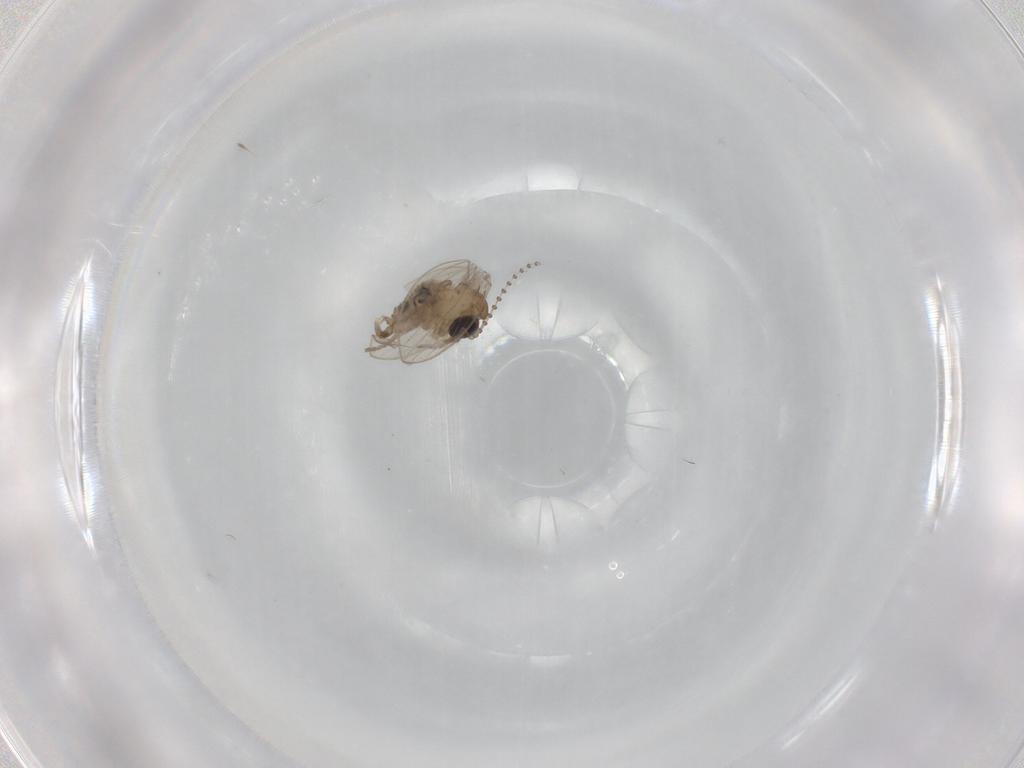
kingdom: Animalia
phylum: Arthropoda
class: Insecta
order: Diptera
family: Psychodidae
